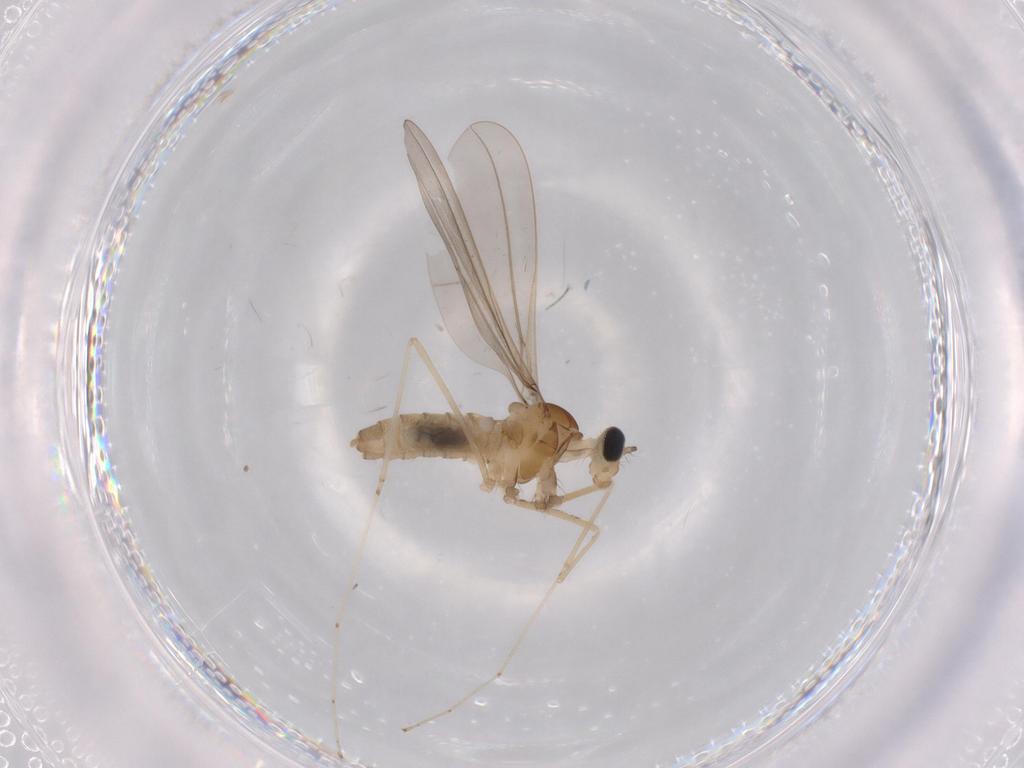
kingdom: Animalia
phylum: Arthropoda
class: Insecta
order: Diptera
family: Cecidomyiidae
